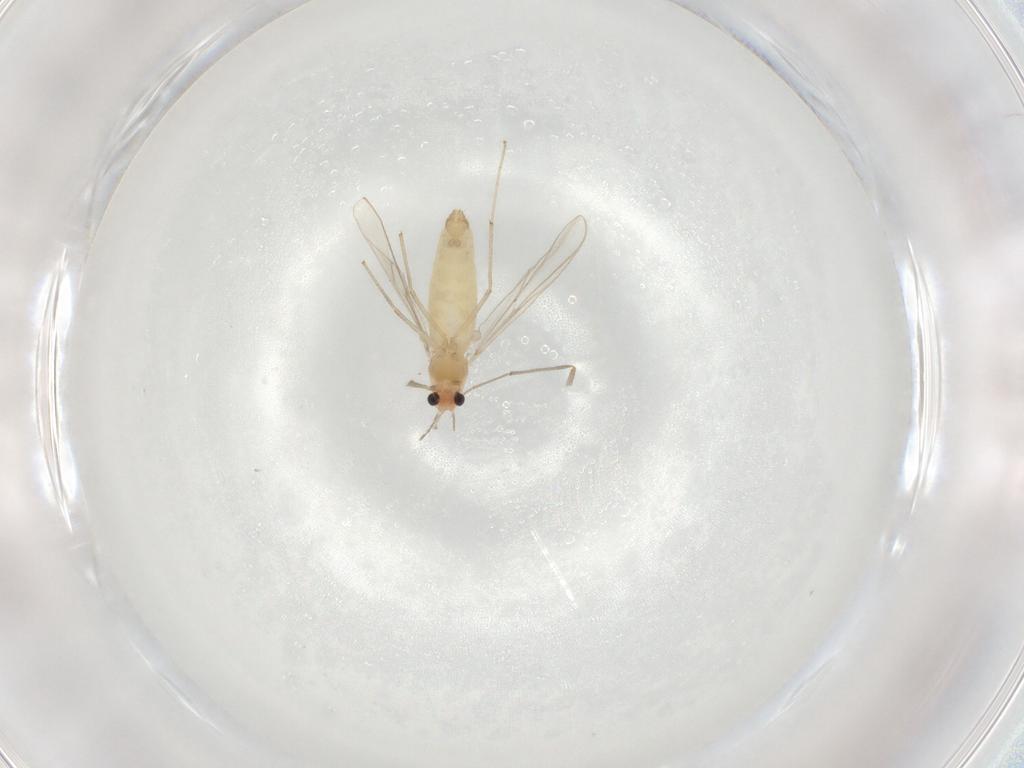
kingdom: Animalia
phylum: Arthropoda
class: Insecta
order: Diptera
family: Chironomidae
